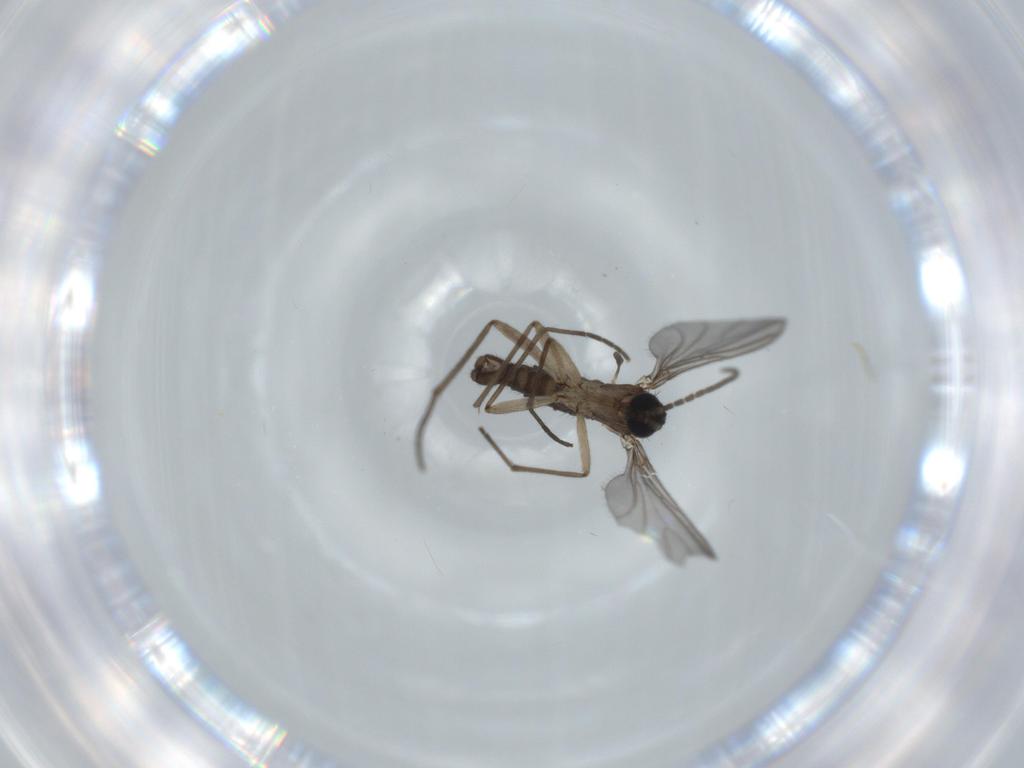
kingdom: Animalia
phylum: Arthropoda
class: Insecta
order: Diptera
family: Sciaridae
